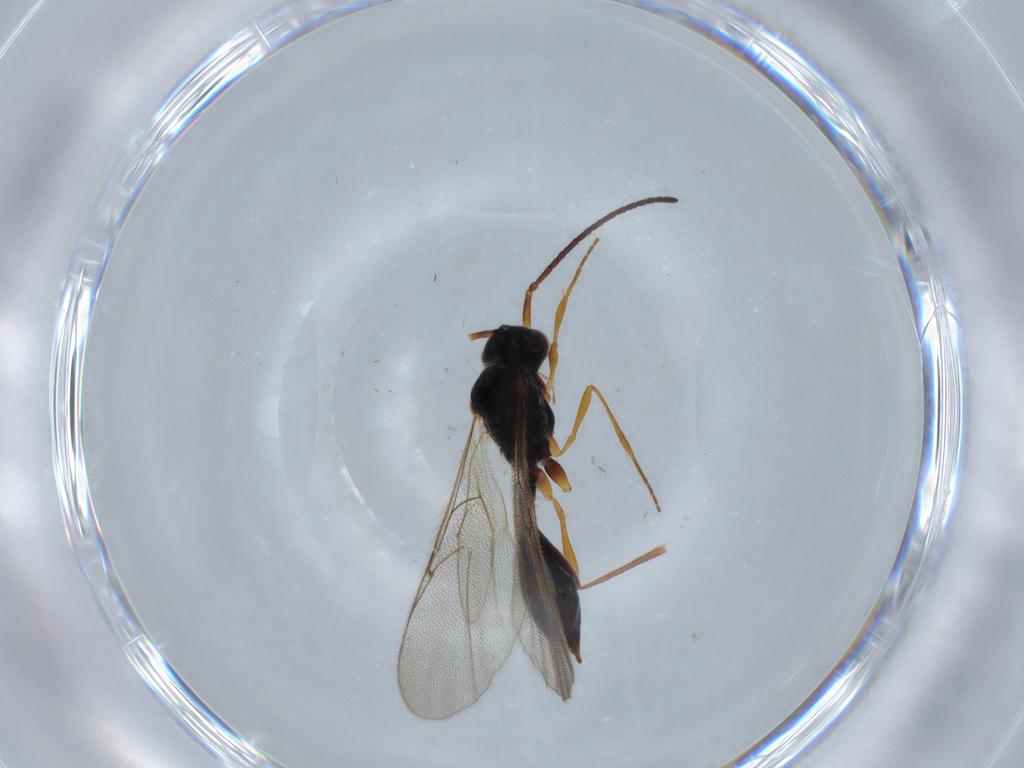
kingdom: Animalia
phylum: Arthropoda
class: Insecta
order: Hymenoptera
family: Diapriidae
